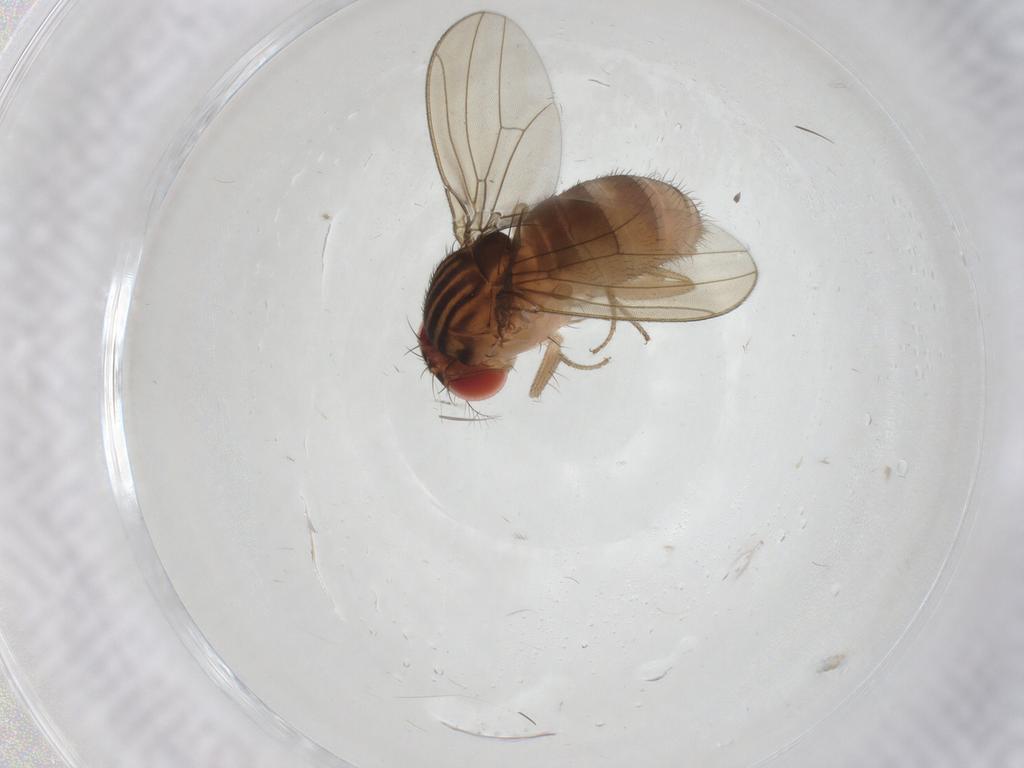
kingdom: Animalia
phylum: Arthropoda
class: Insecta
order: Diptera
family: Drosophilidae
